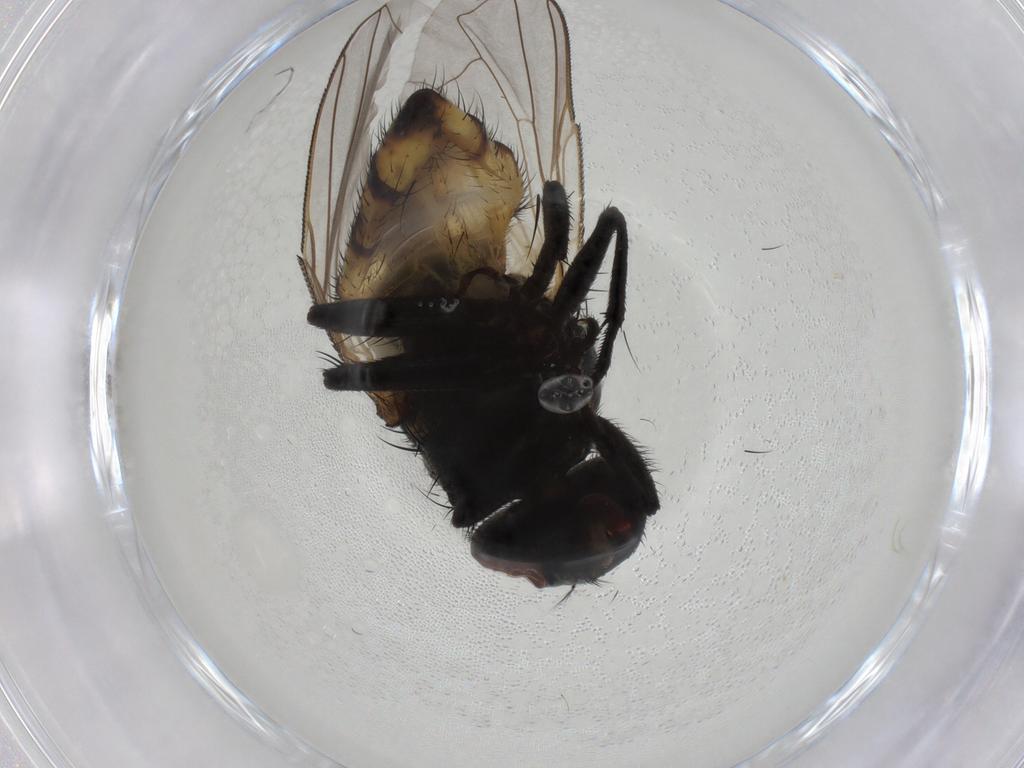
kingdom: Animalia
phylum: Arthropoda
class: Insecta
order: Diptera
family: Muscidae
